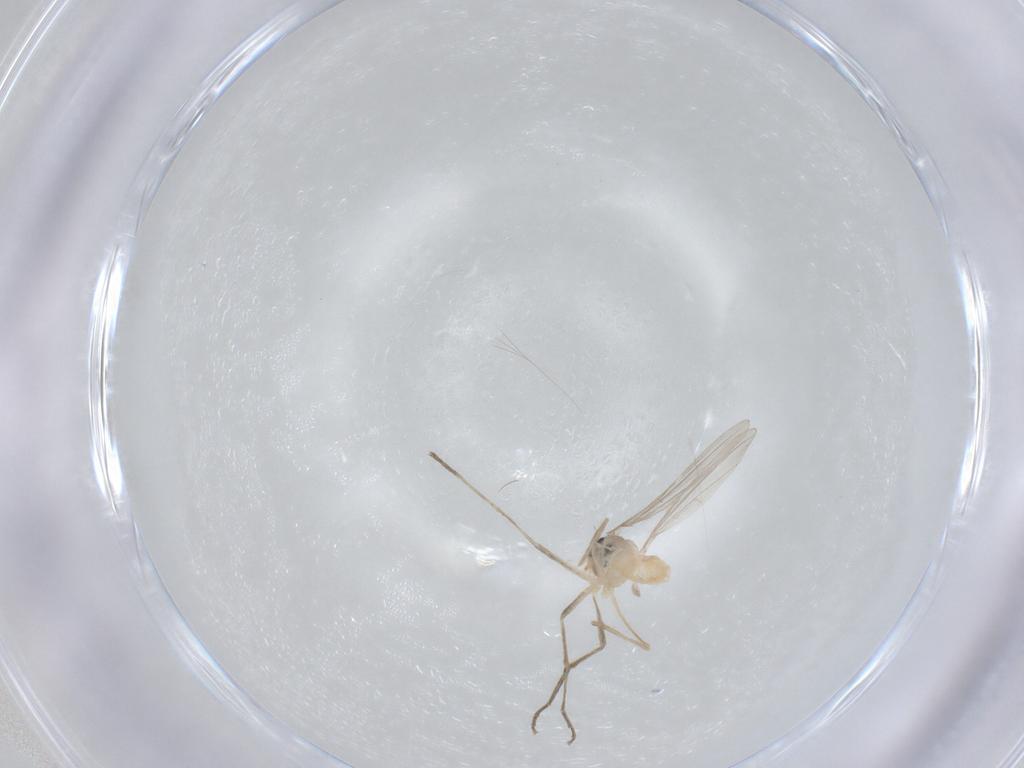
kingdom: Animalia
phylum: Arthropoda
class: Insecta
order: Diptera
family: Cecidomyiidae
